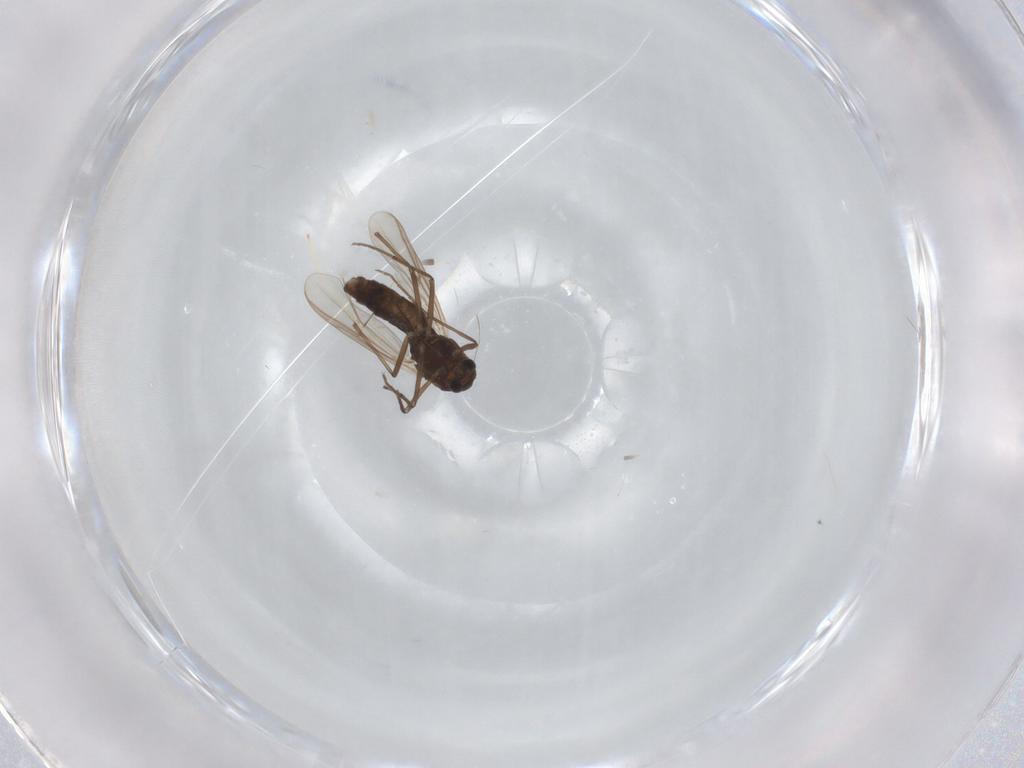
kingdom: Animalia
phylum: Arthropoda
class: Insecta
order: Diptera
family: Chironomidae
